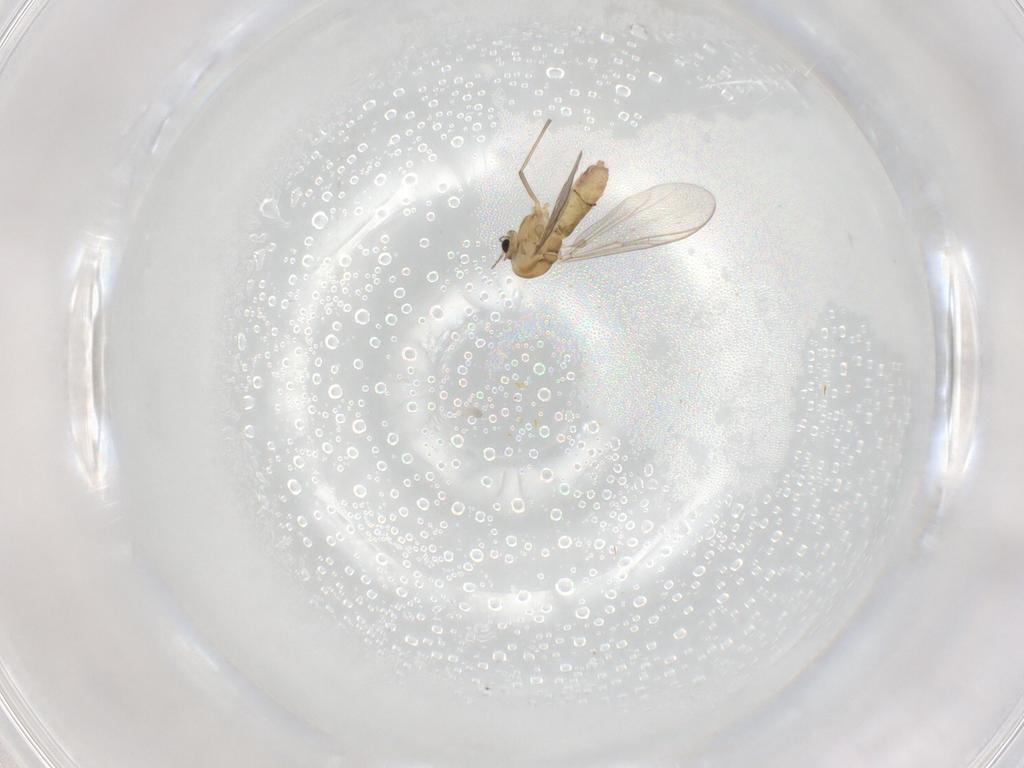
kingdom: Animalia
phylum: Arthropoda
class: Insecta
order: Diptera
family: Chironomidae
